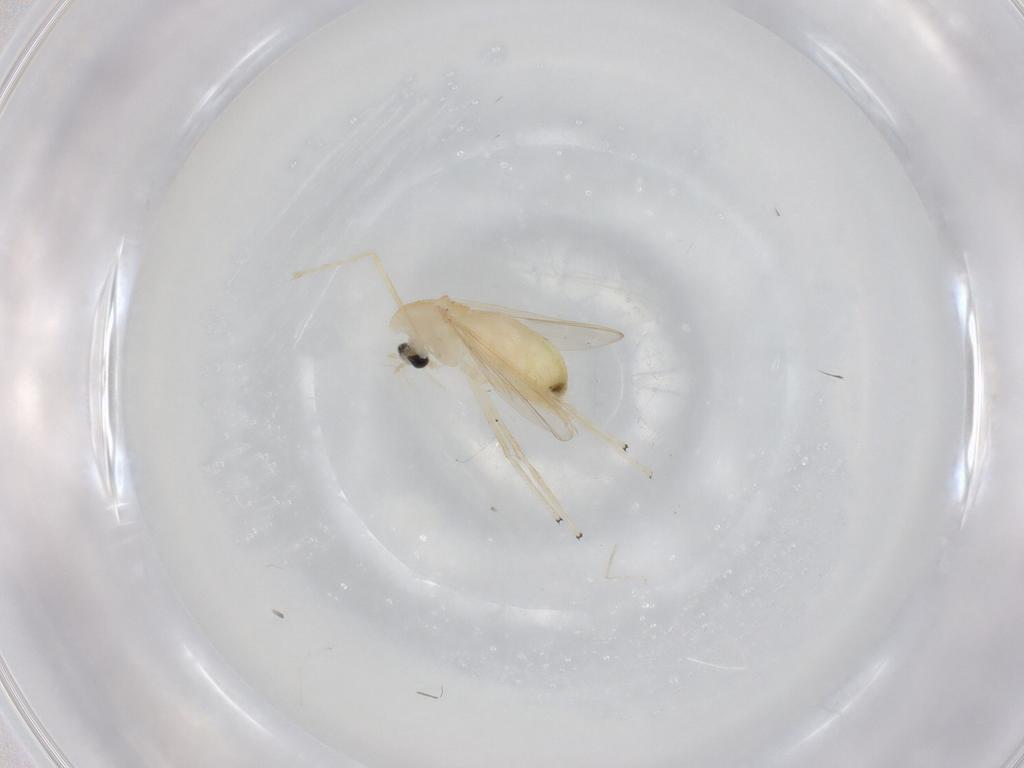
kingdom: Animalia
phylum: Arthropoda
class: Insecta
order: Diptera
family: Chironomidae
